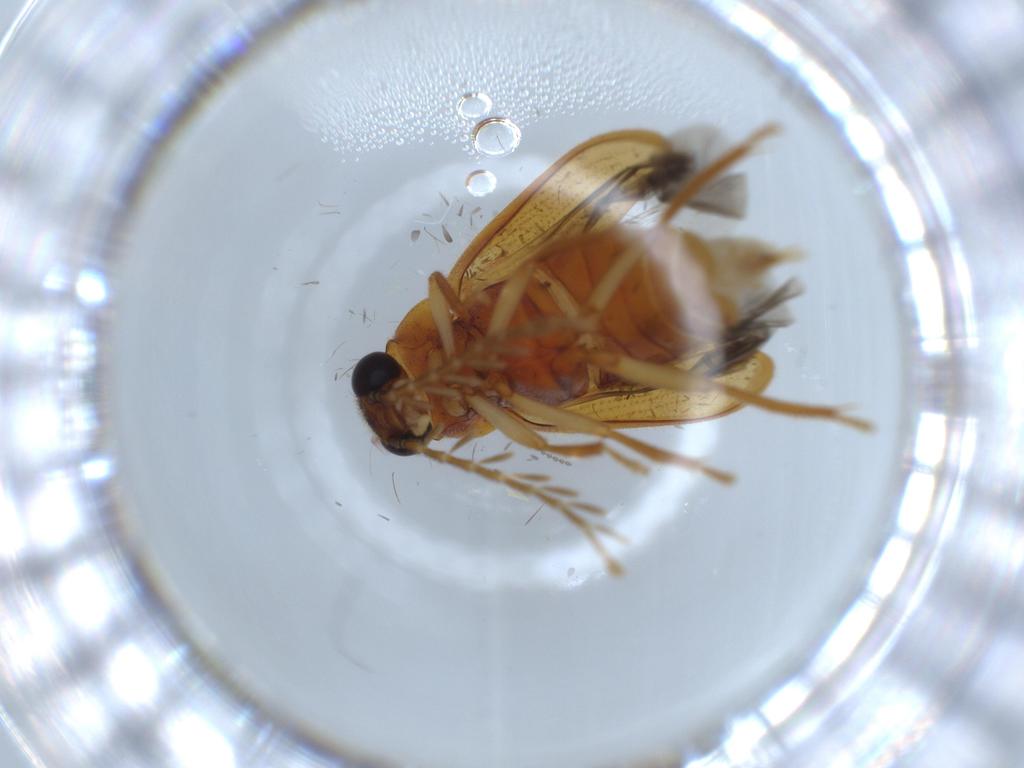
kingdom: Animalia
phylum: Arthropoda
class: Insecta
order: Coleoptera
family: Ptilodactylidae
